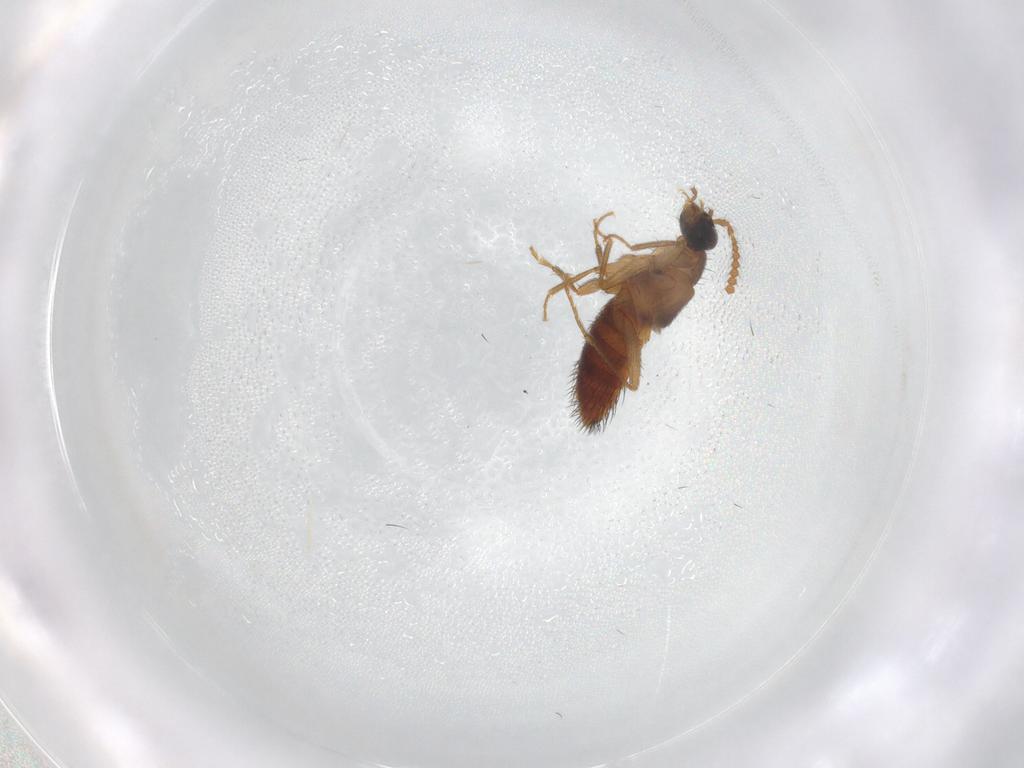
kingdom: Animalia
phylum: Arthropoda
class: Insecta
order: Coleoptera
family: Staphylinidae
